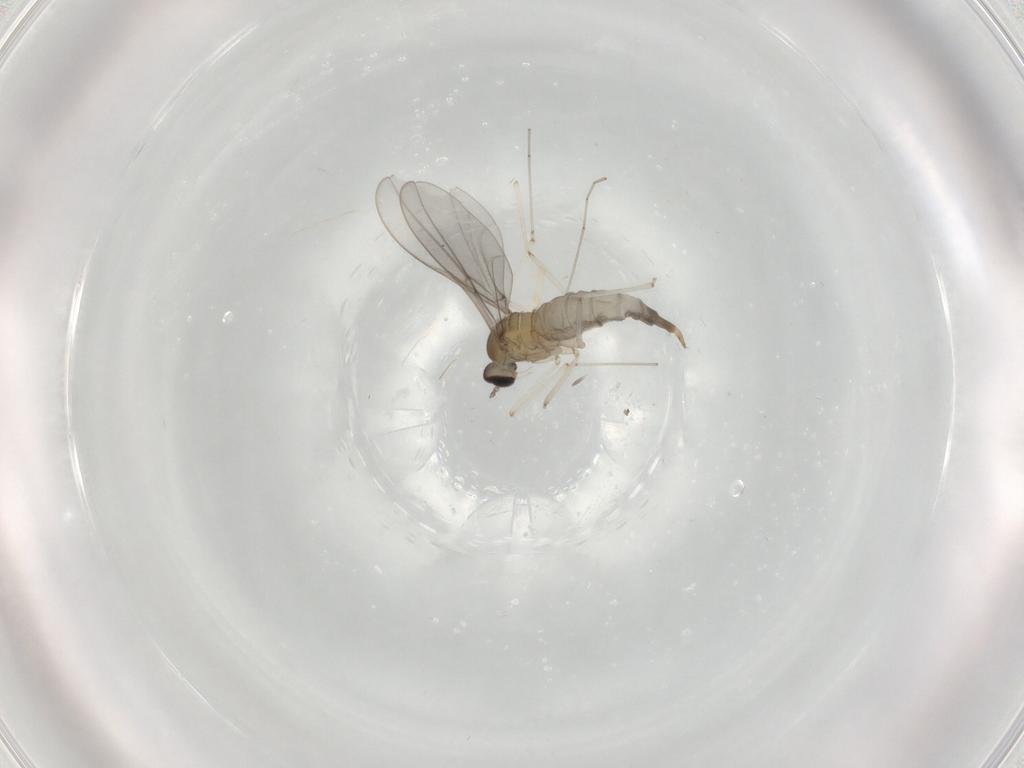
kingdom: Animalia
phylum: Arthropoda
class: Insecta
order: Diptera
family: Cecidomyiidae
